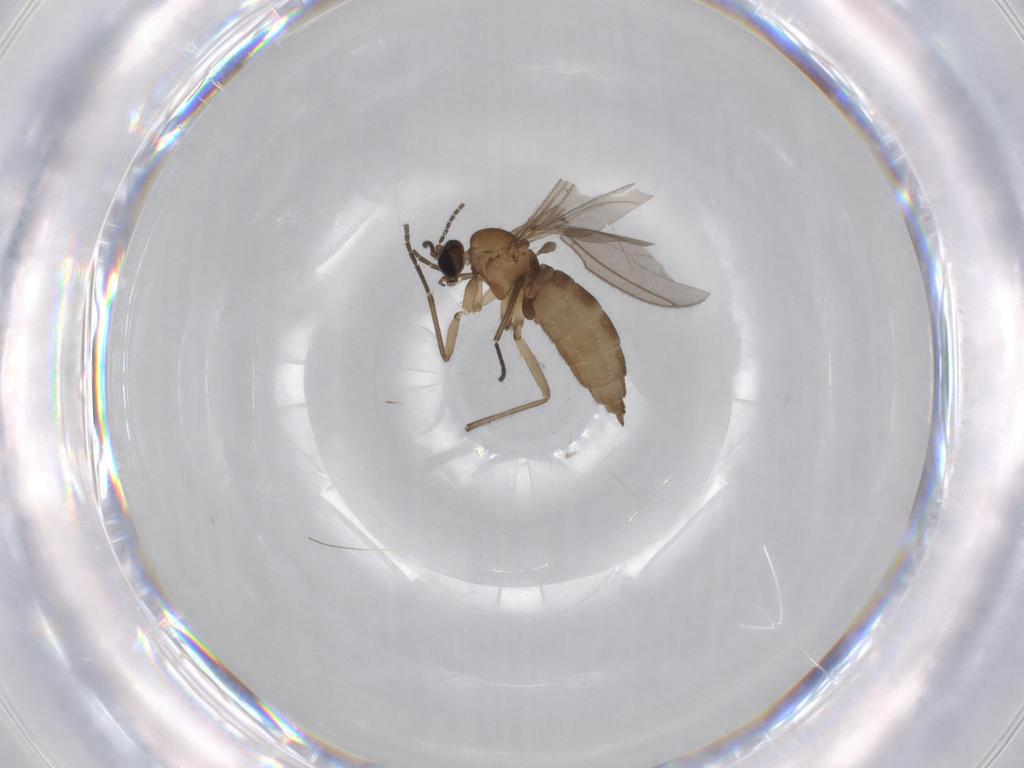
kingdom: Animalia
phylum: Arthropoda
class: Insecta
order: Diptera
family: Sciaridae
